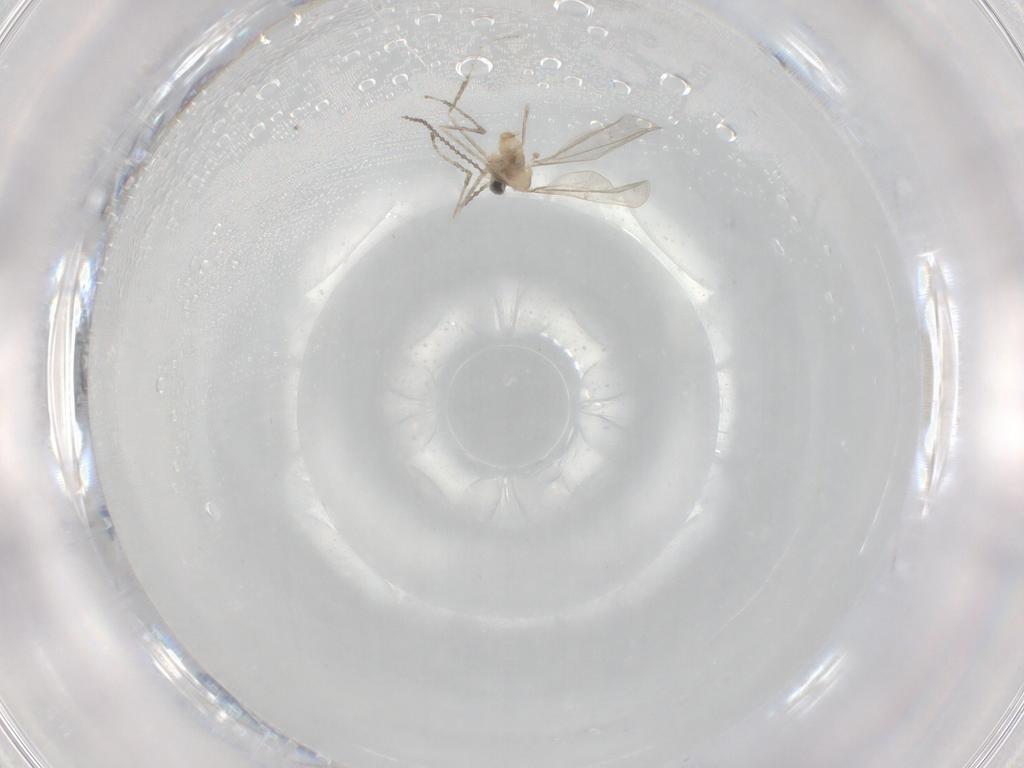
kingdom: Animalia
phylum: Arthropoda
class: Insecta
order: Diptera
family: Cecidomyiidae
